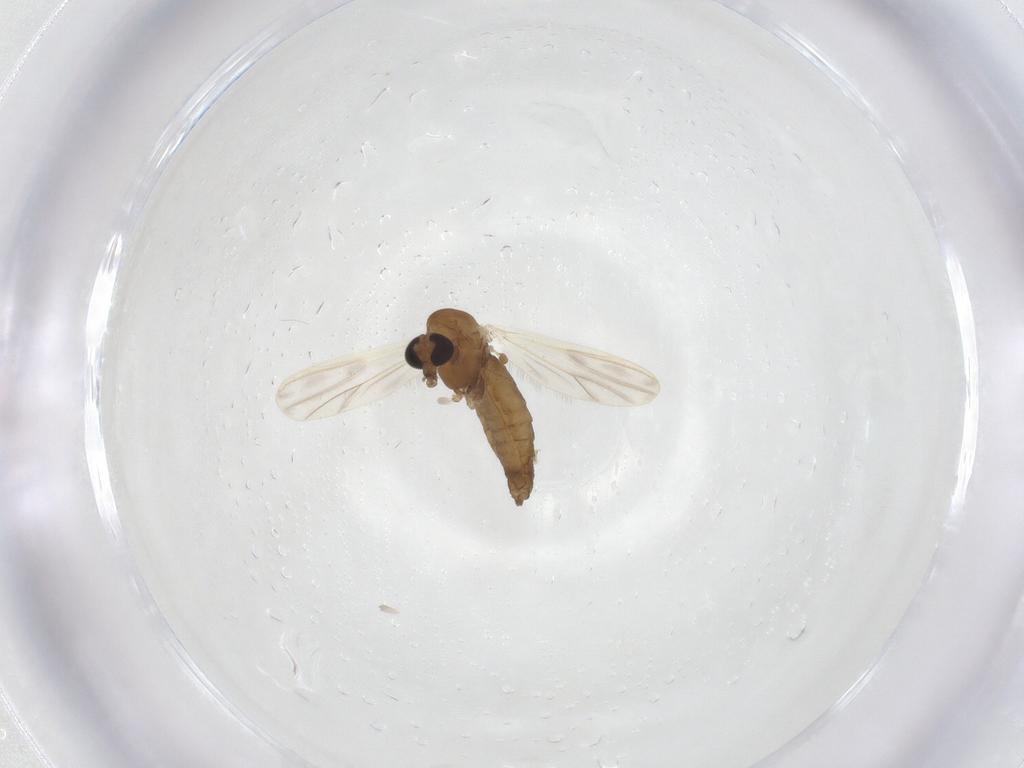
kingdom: Animalia
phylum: Arthropoda
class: Insecta
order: Diptera
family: Chironomidae
